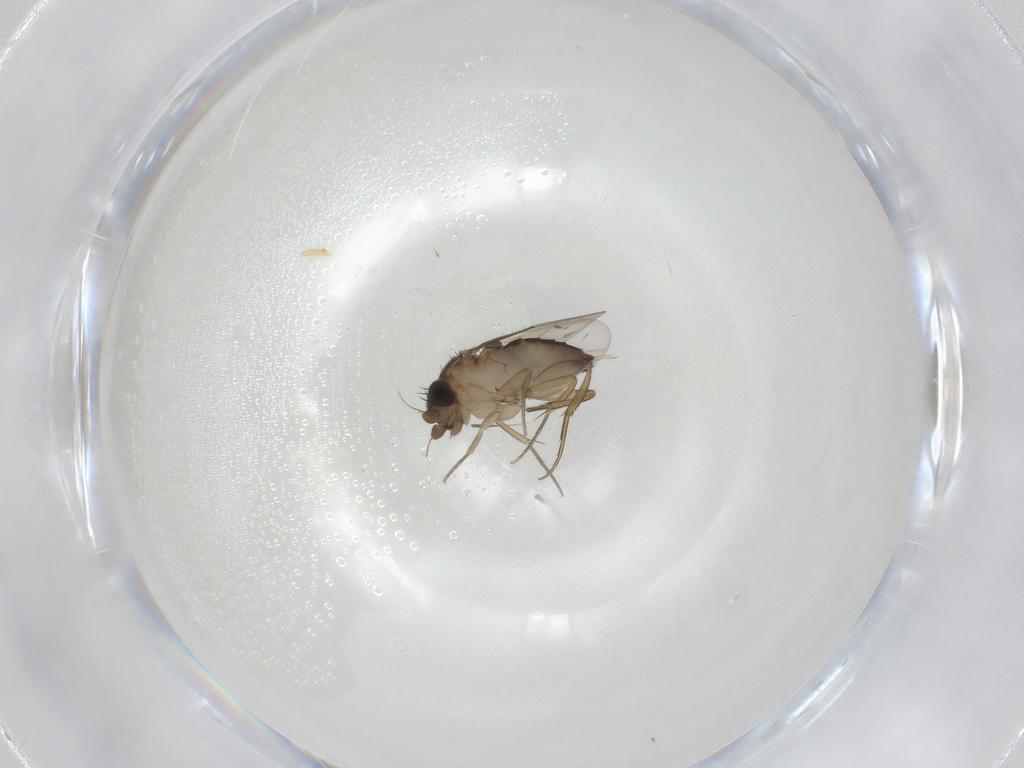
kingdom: Animalia
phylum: Arthropoda
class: Insecta
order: Diptera
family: Phoridae
